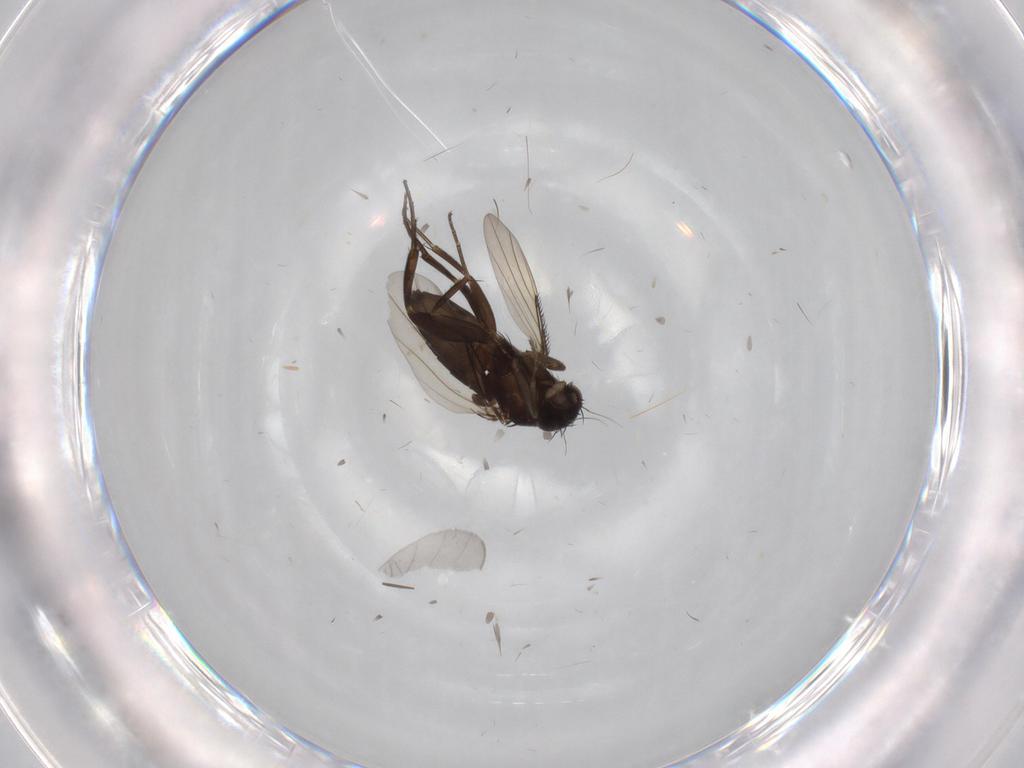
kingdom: Animalia
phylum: Arthropoda
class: Insecta
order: Diptera
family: Phoridae
